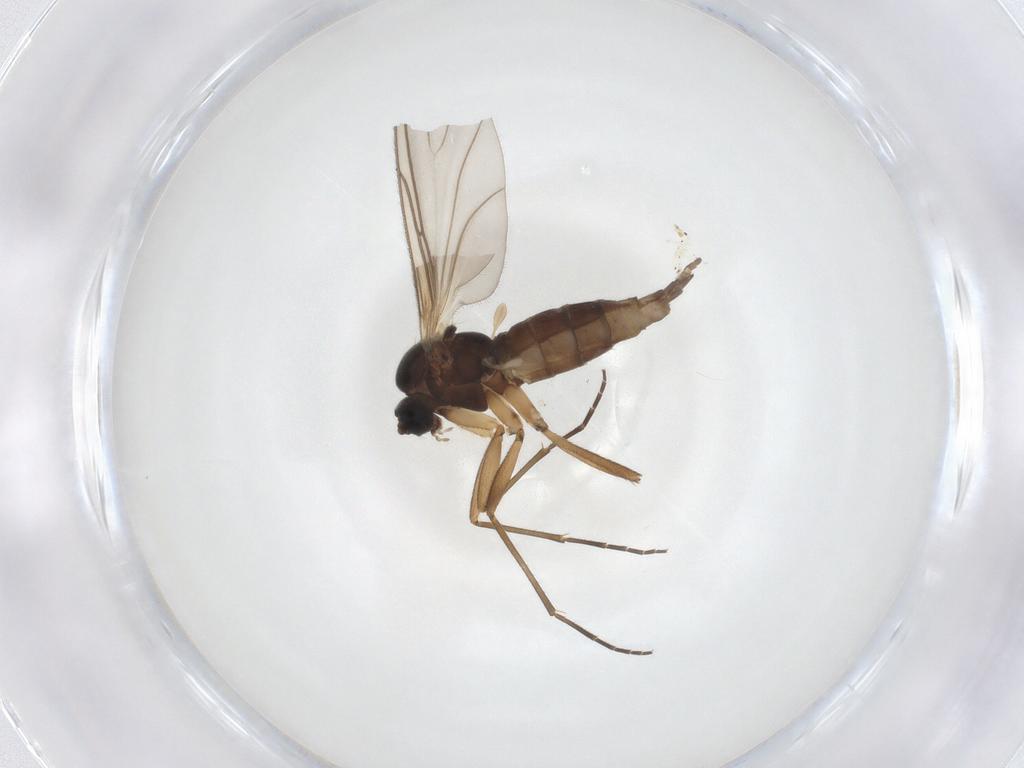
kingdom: Animalia
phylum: Arthropoda
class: Insecta
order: Diptera
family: Sciaridae
